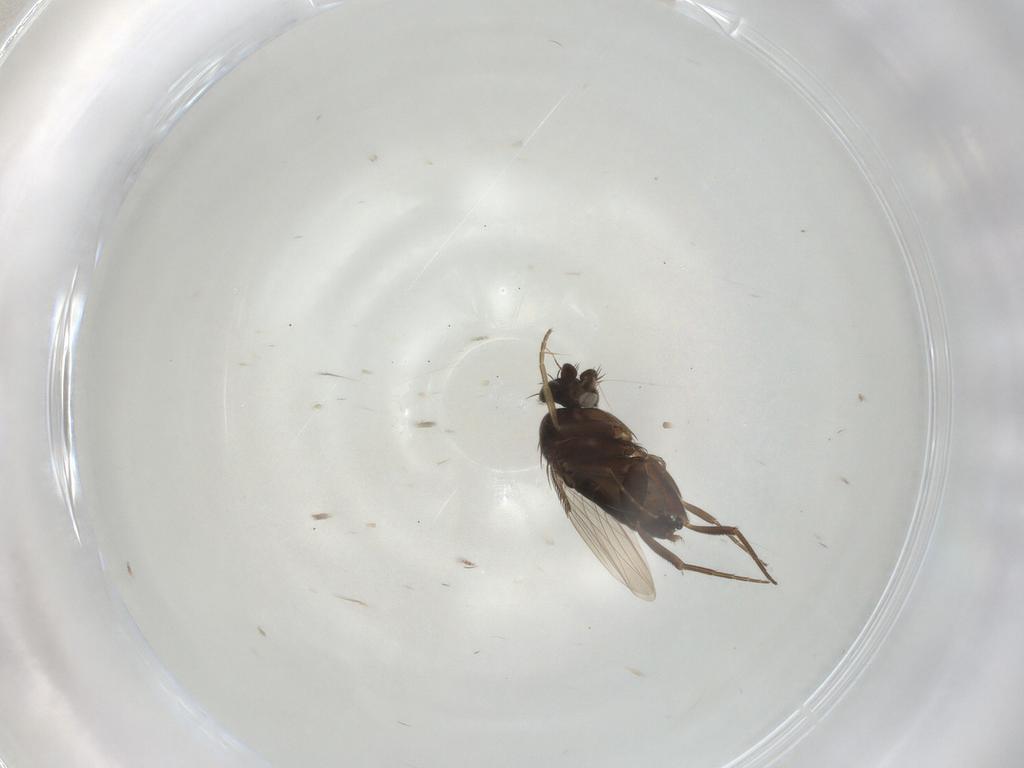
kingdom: Animalia
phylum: Arthropoda
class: Insecta
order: Diptera
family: Phoridae
